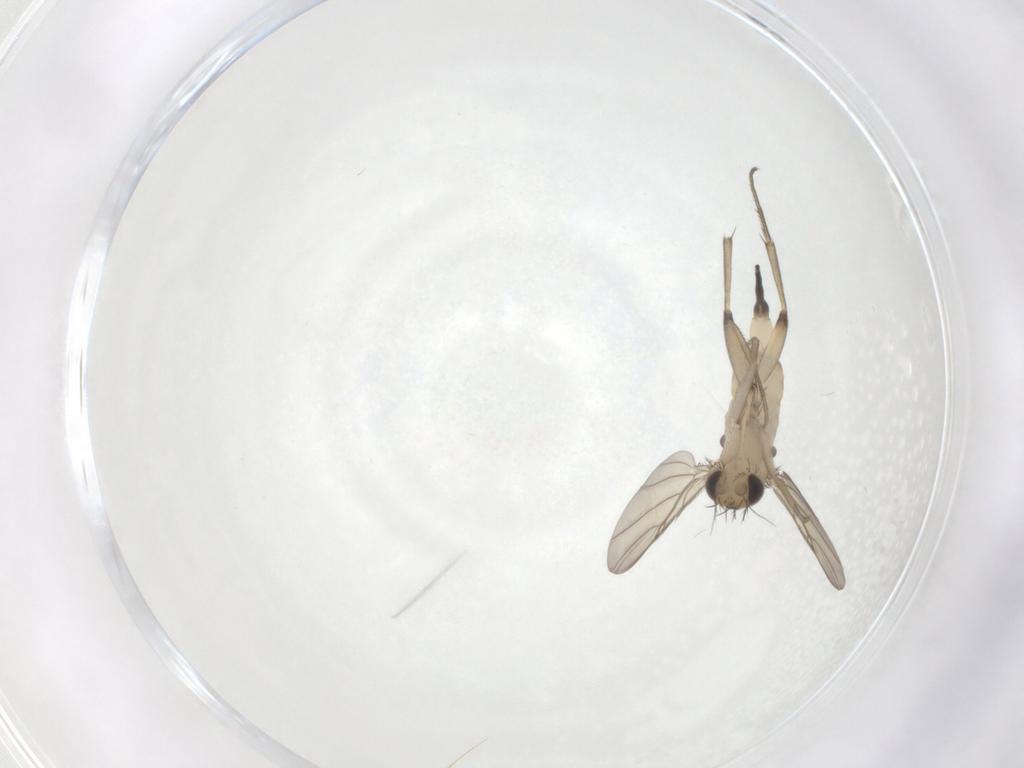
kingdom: Animalia
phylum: Arthropoda
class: Insecta
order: Diptera
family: Phoridae
